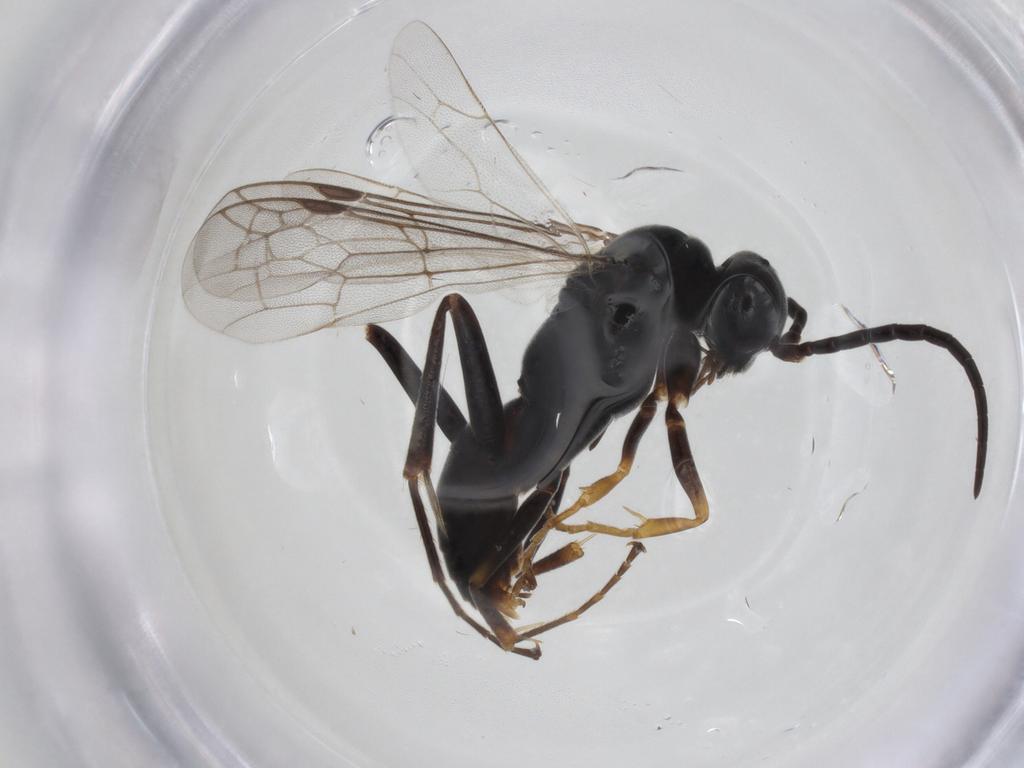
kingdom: Animalia
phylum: Arthropoda
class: Insecta
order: Hymenoptera
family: Pompilidae
